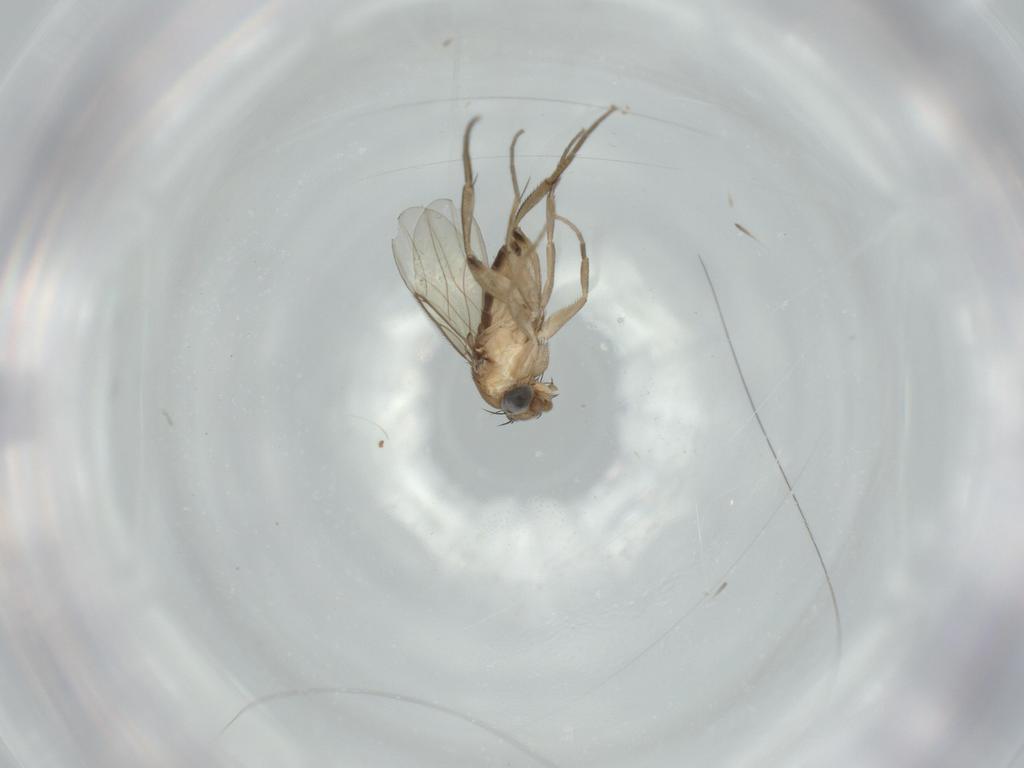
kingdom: Animalia
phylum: Arthropoda
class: Insecta
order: Diptera
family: Phoridae
